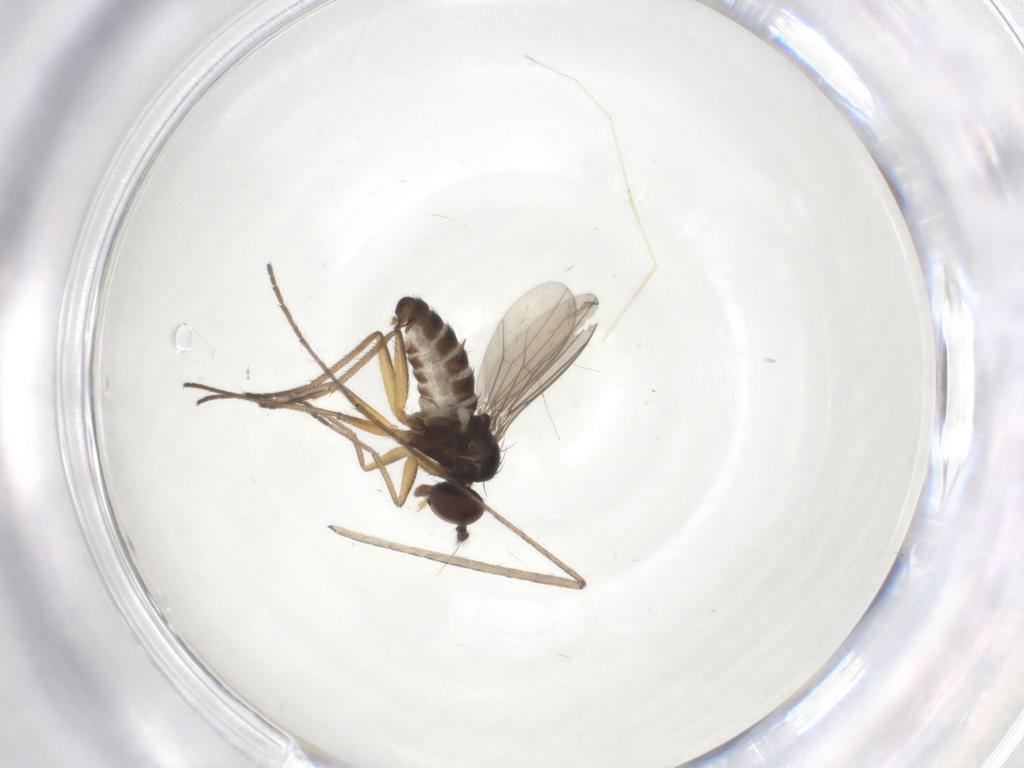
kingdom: Animalia
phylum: Arthropoda
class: Insecta
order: Diptera
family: Dolichopodidae
